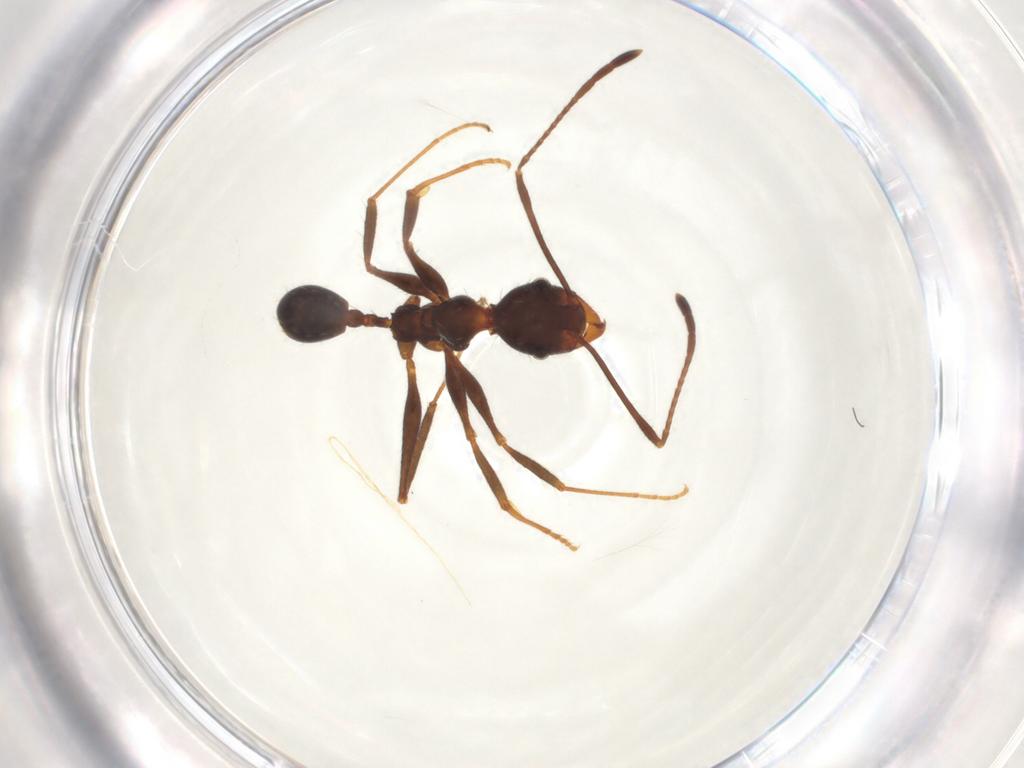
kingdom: Animalia
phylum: Arthropoda
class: Insecta
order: Hymenoptera
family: Formicidae
